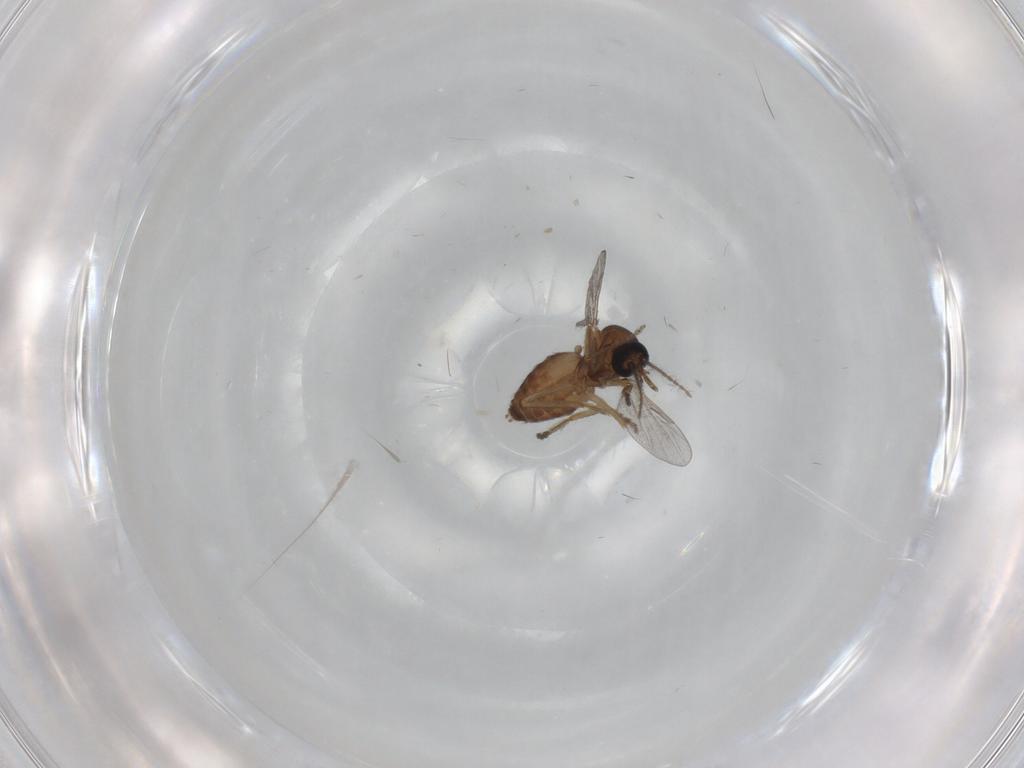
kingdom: Animalia
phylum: Arthropoda
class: Insecta
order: Diptera
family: Ceratopogonidae
